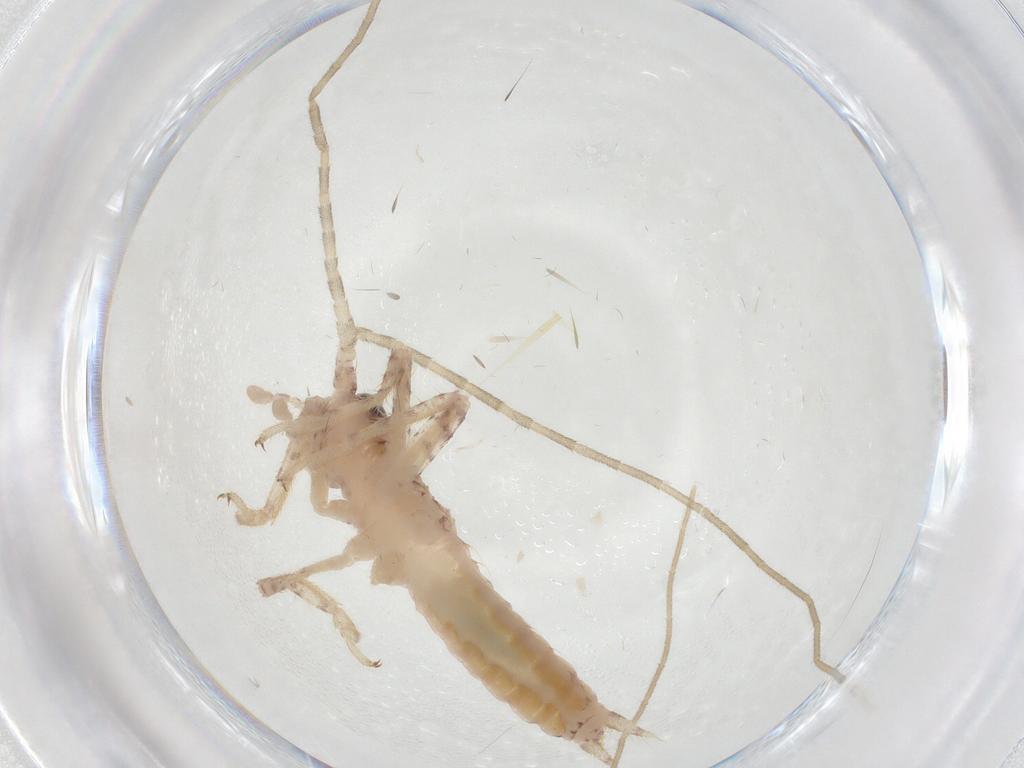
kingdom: Animalia
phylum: Arthropoda
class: Insecta
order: Orthoptera
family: Gryllidae
